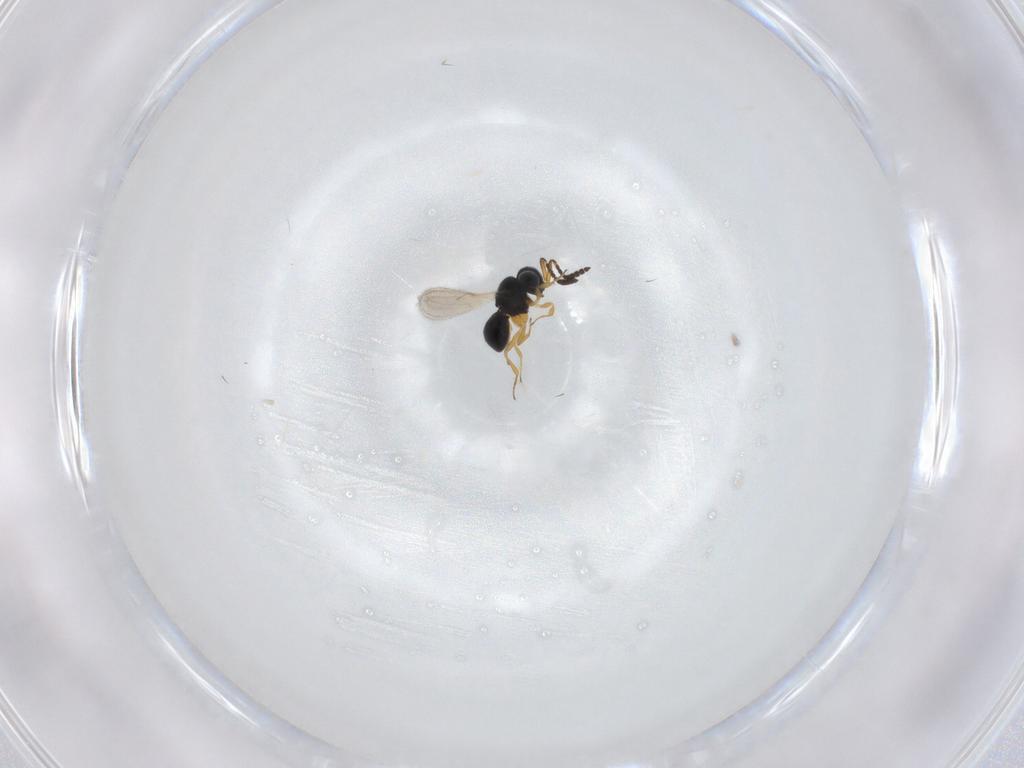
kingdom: Animalia
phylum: Arthropoda
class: Insecta
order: Hymenoptera
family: Scelionidae
